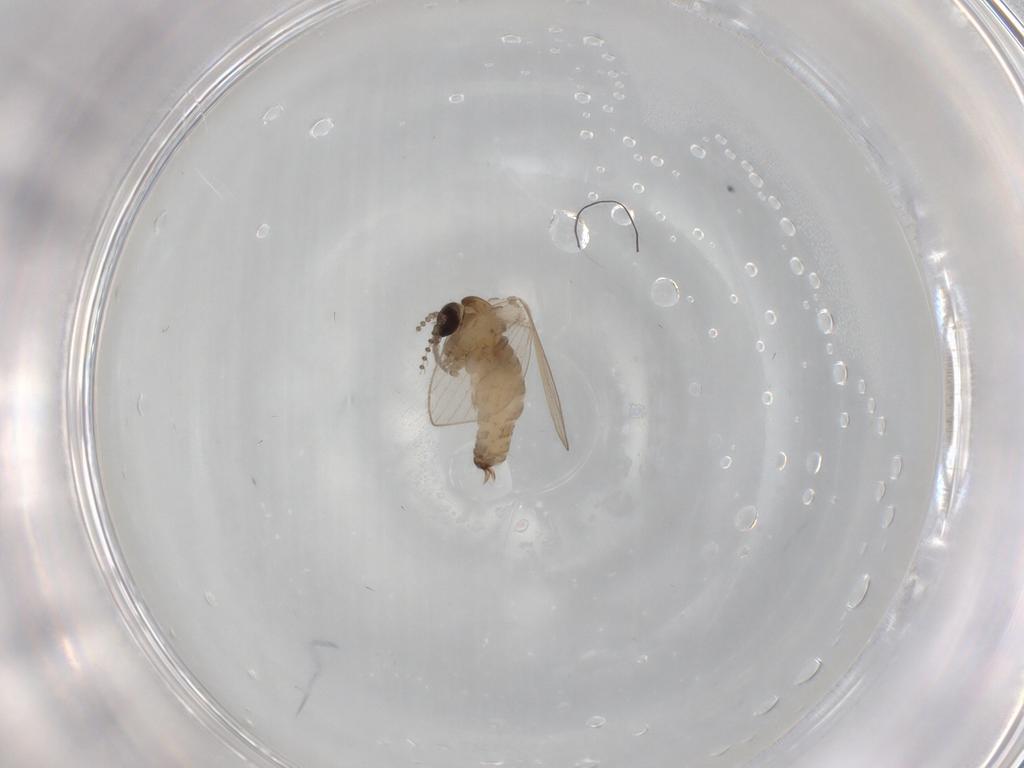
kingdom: Animalia
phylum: Arthropoda
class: Insecta
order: Diptera
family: Psychodidae
